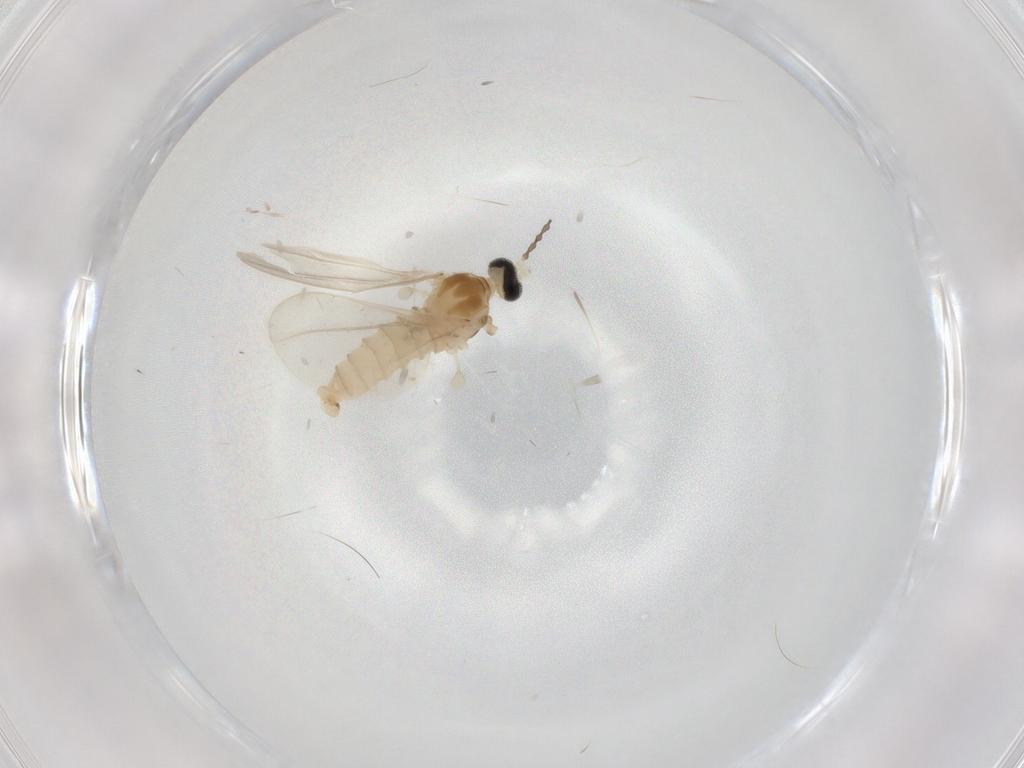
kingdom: Animalia
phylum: Arthropoda
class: Insecta
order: Diptera
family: Cecidomyiidae
